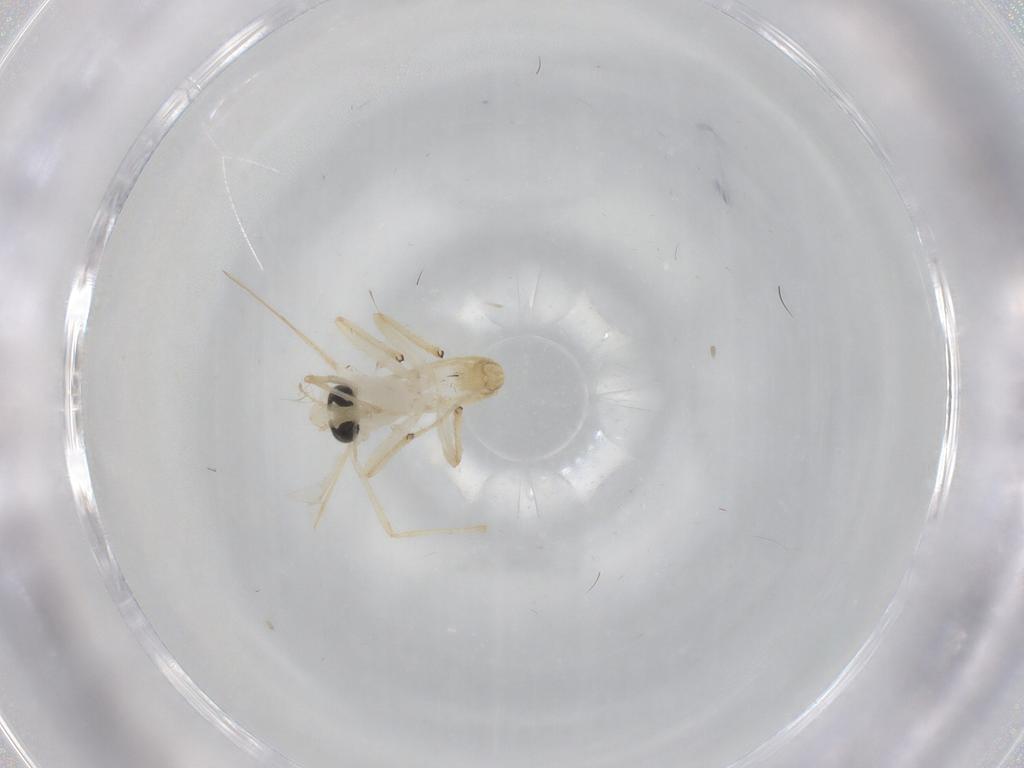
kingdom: Animalia
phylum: Arthropoda
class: Insecta
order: Diptera
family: Chironomidae
